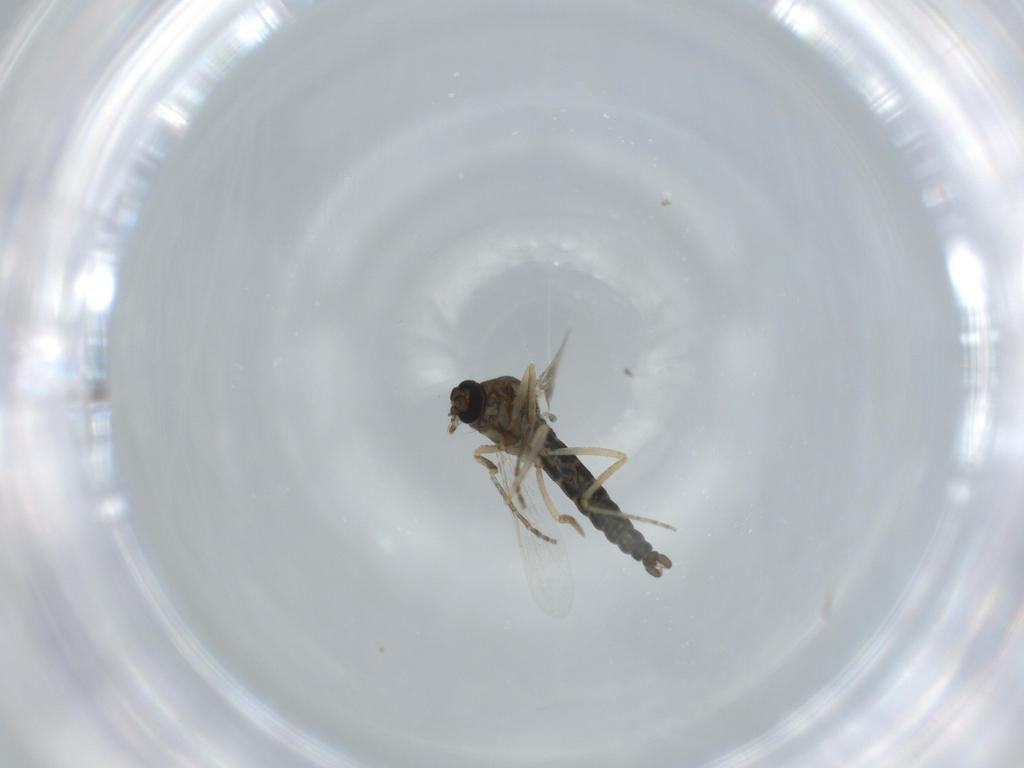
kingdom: Animalia
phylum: Arthropoda
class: Insecta
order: Diptera
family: Ceratopogonidae
